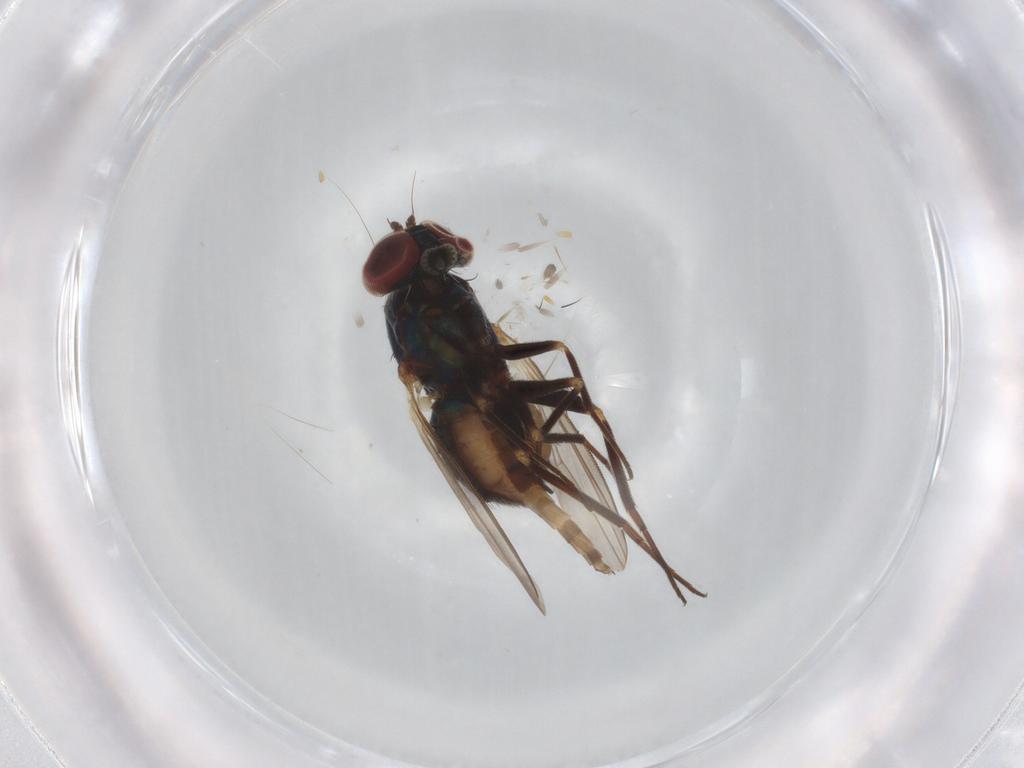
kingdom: Animalia
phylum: Arthropoda
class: Insecta
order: Diptera
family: Dolichopodidae
